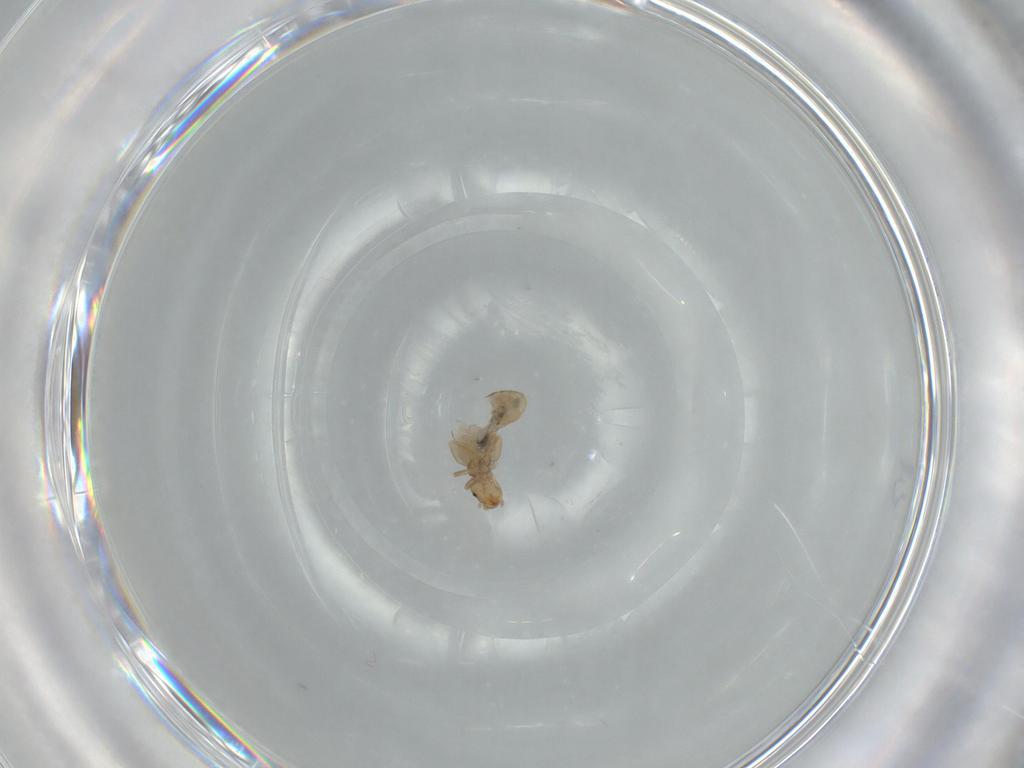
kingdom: Animalia
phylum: Arthropoda
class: Insecta
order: Psocodea
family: Liposcelididae
